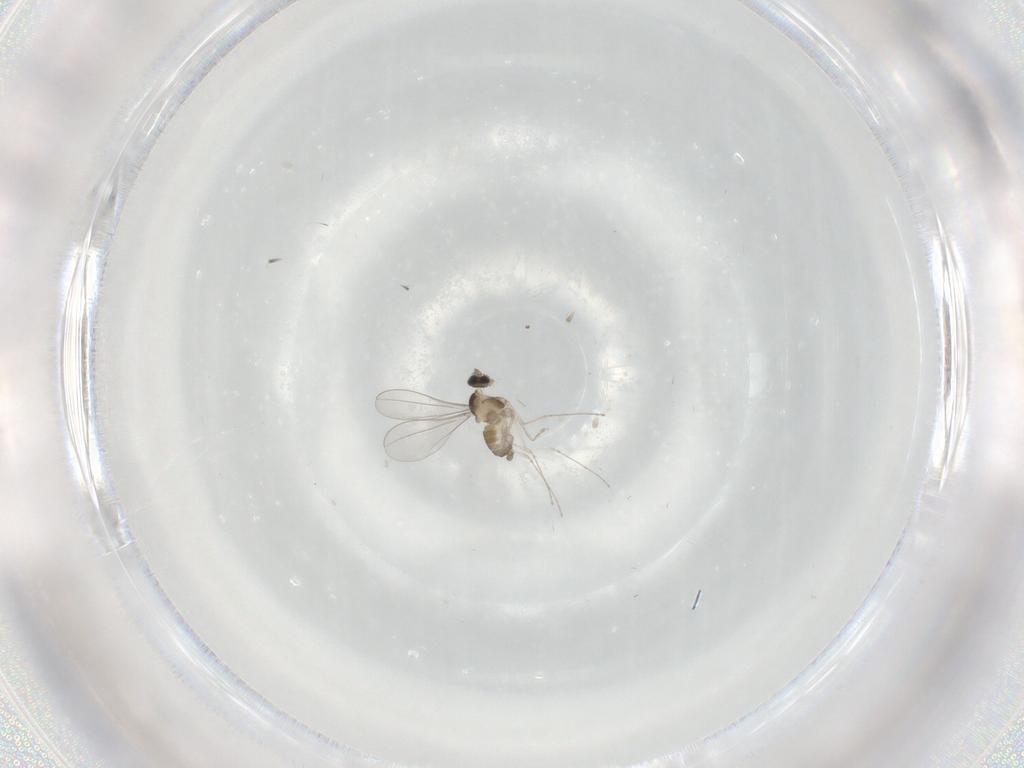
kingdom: Animalia
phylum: Arthropoda
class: Insecta
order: Diptera
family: Cecidomyiidae
